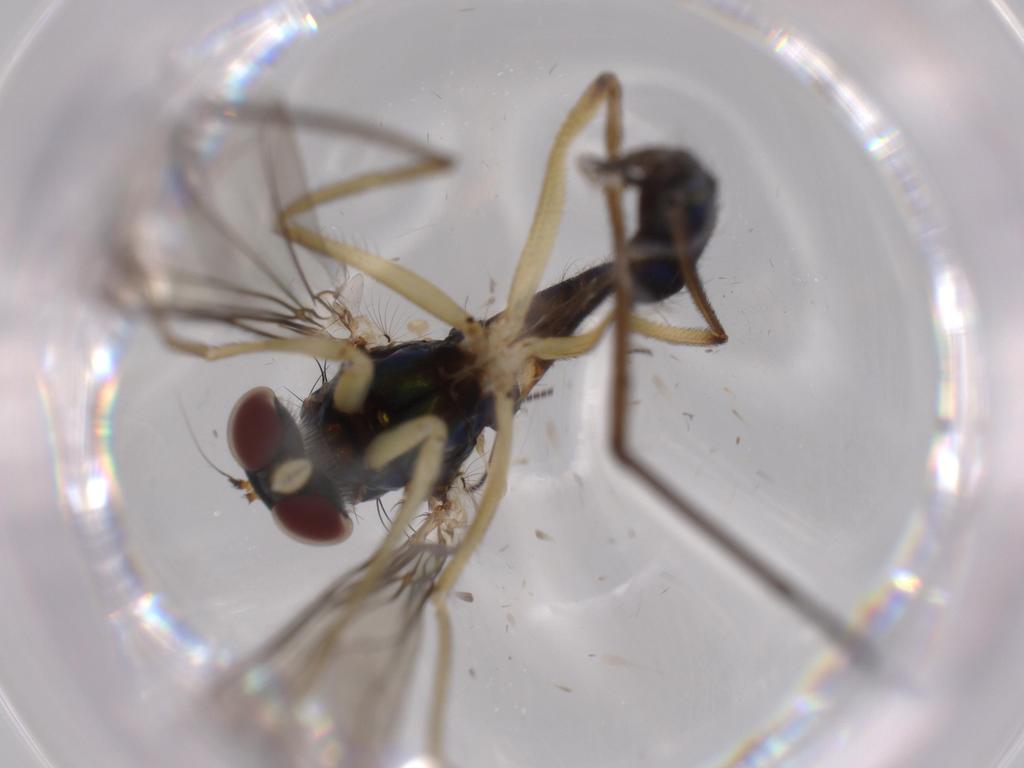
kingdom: Animalia
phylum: Arthropoda
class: Insecta
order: Diptera
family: Dolichopodidae
